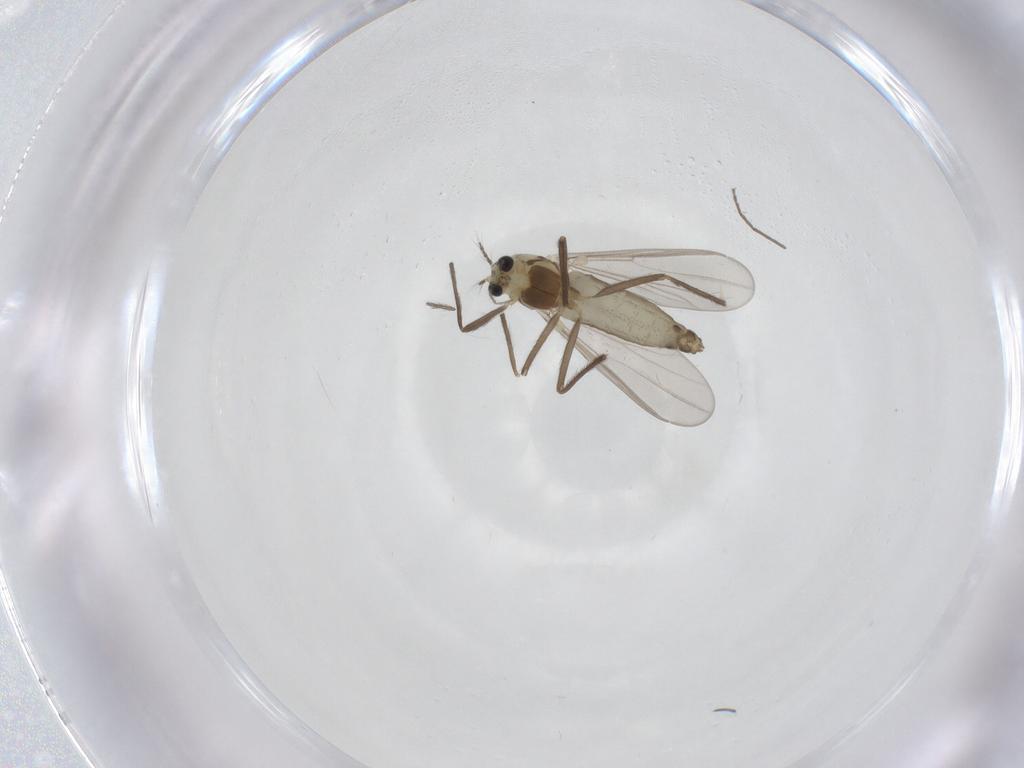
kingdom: Animalia
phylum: Arthropoda
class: Insecta
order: Diptera
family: Chironomidae
